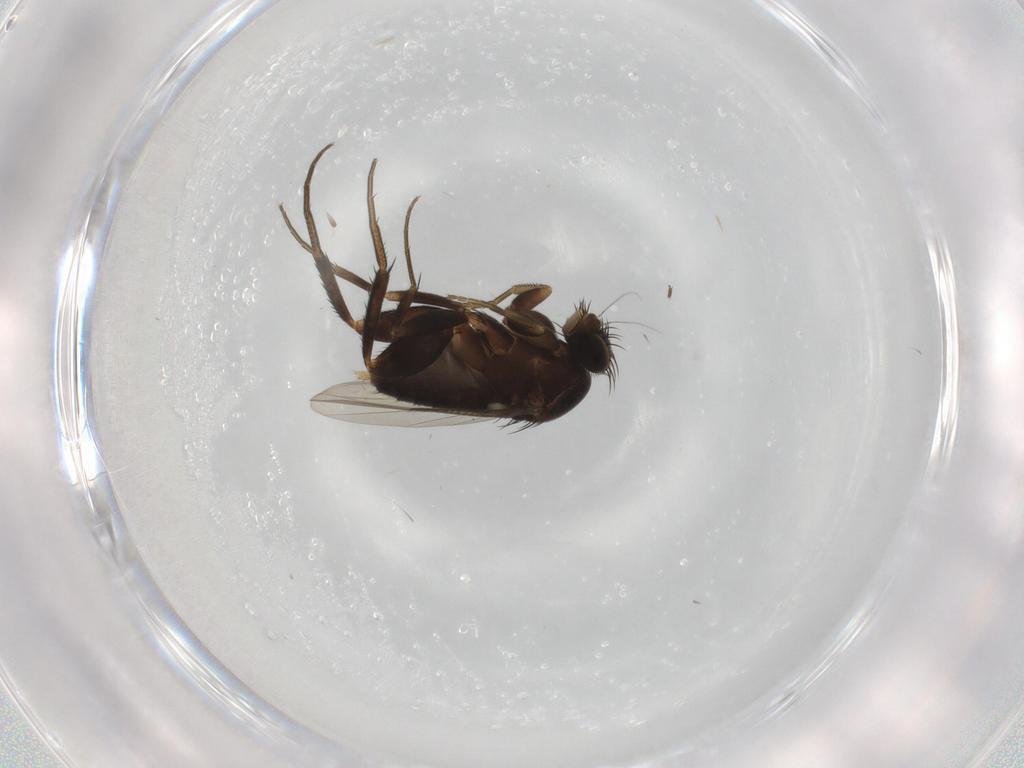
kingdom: Animalia
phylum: Arthropoda
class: Insecta
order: Diptera
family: Phoridae
